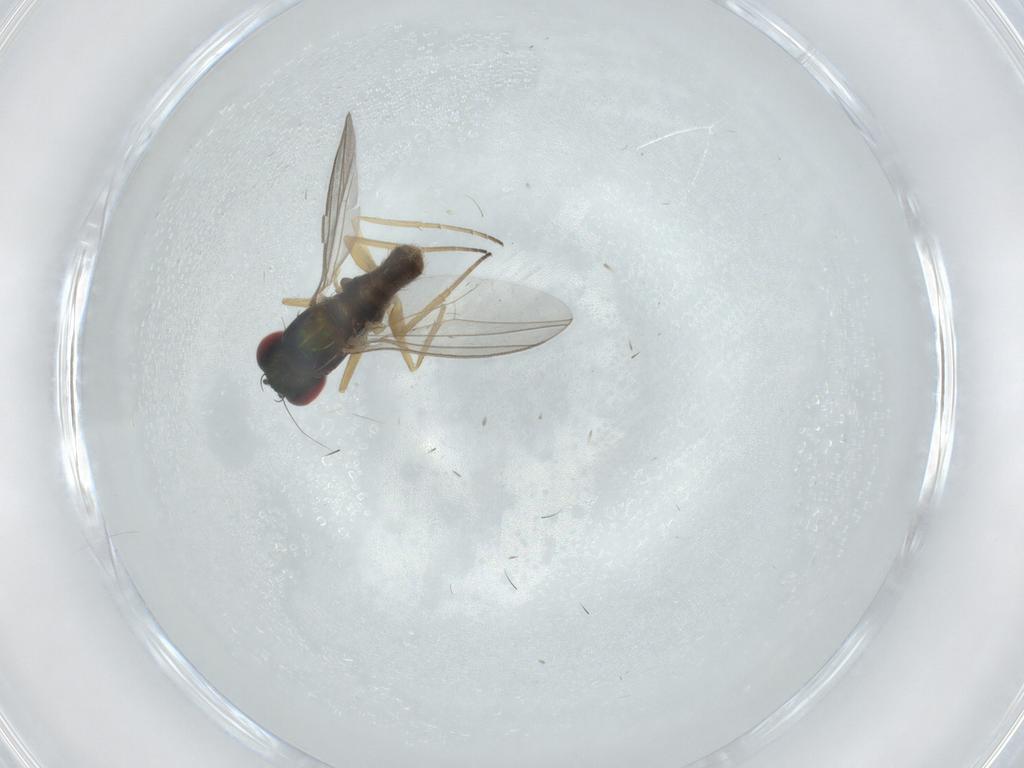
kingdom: Animalia
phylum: Arthropoda
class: Insecta
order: Diptera
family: Dolichopodidae
